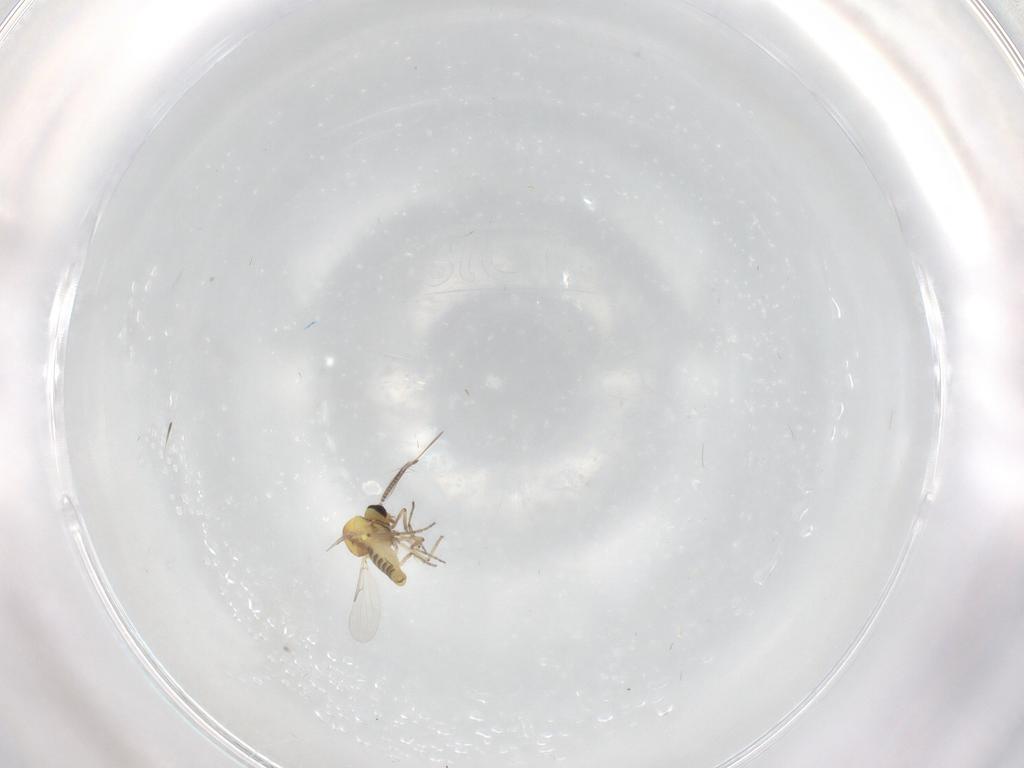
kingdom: Animalia
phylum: Arthropoda
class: Insecta
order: Diptera
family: Ceratopogonidae
